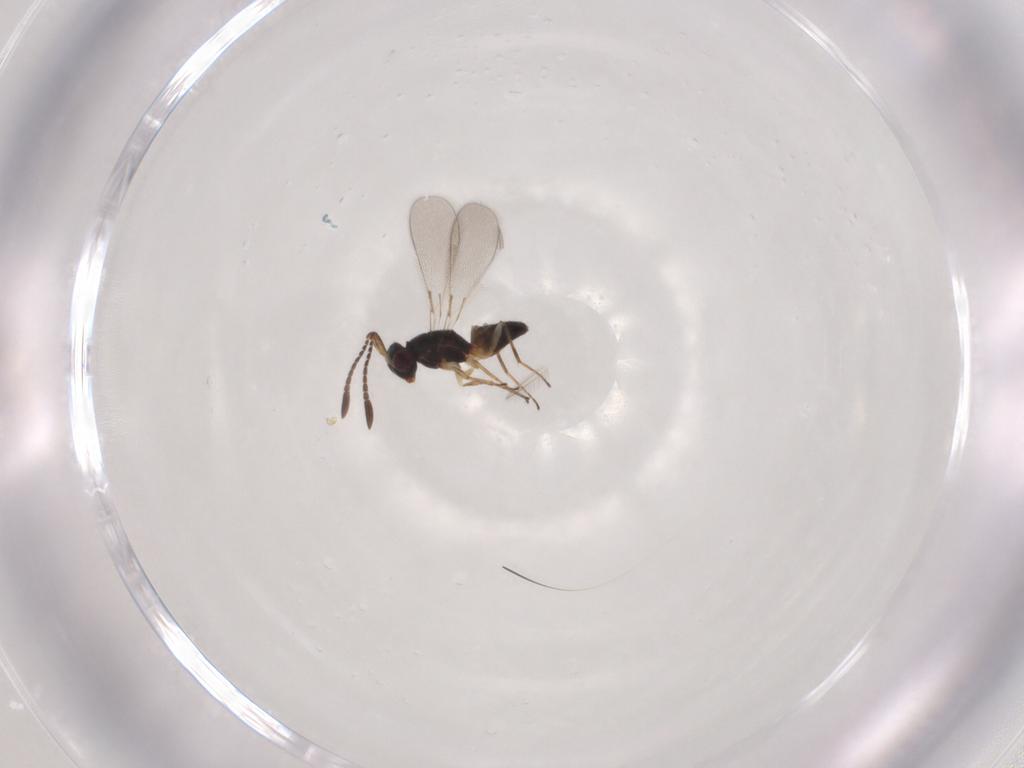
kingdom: Animalia
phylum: Arthropoda
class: Insecta
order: Hymenoptera
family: Mymaridae
